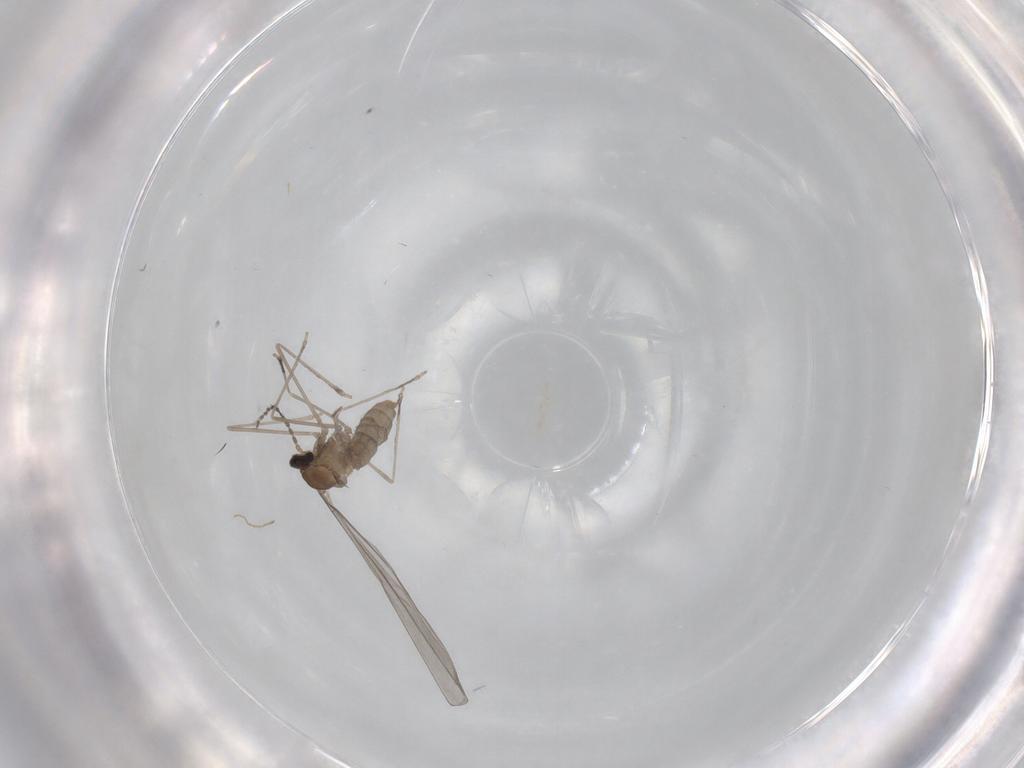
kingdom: Animalia
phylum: Arthropoda
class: Insecta
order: Diptera
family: Cecidomyiidae
